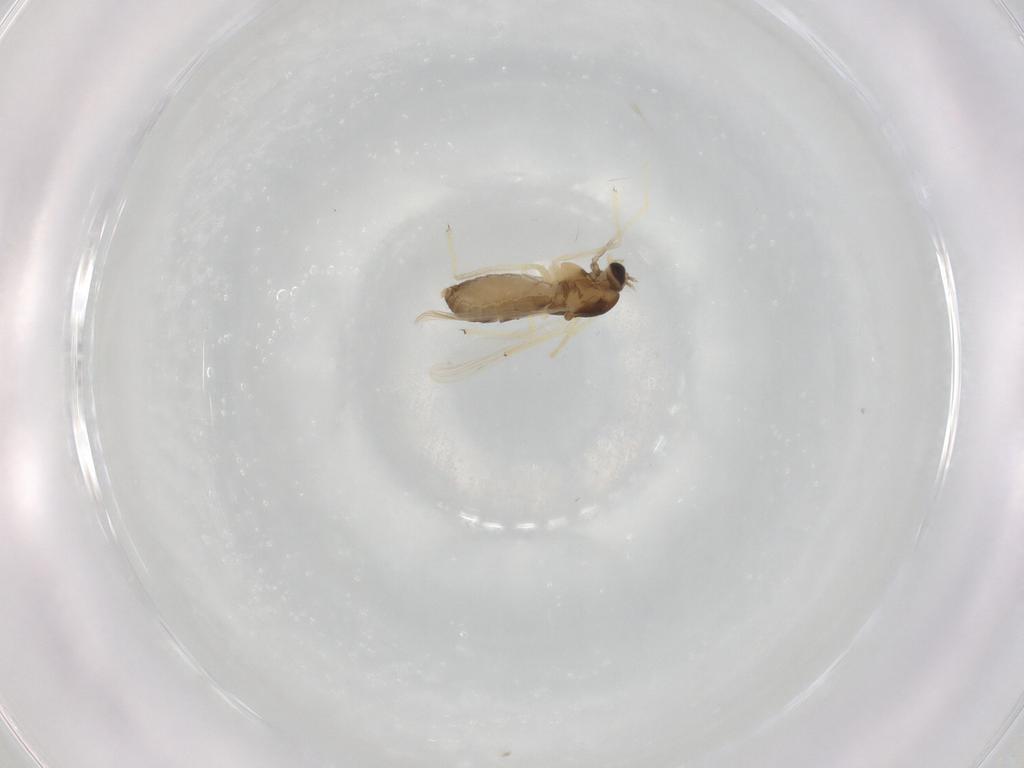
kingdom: Animalia
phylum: Arthropoda
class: Insecta
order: Diptera
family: Chironomidae
